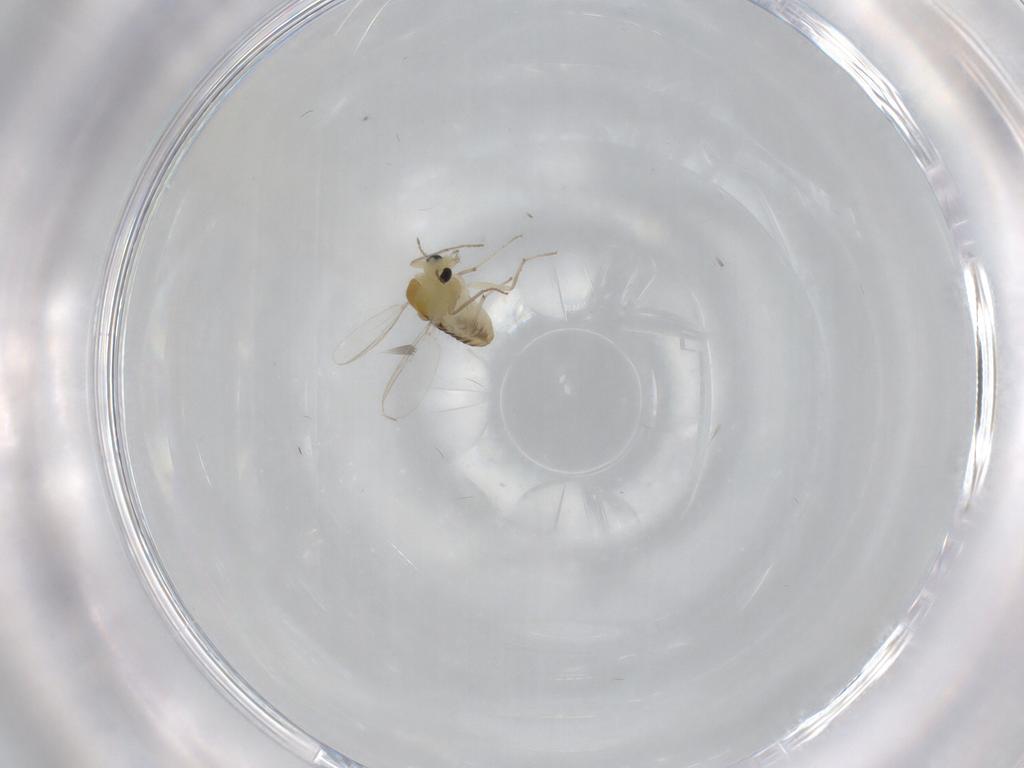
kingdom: Animalia
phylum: Arthropoda
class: Insecta
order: Diptera
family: Chironomidae
